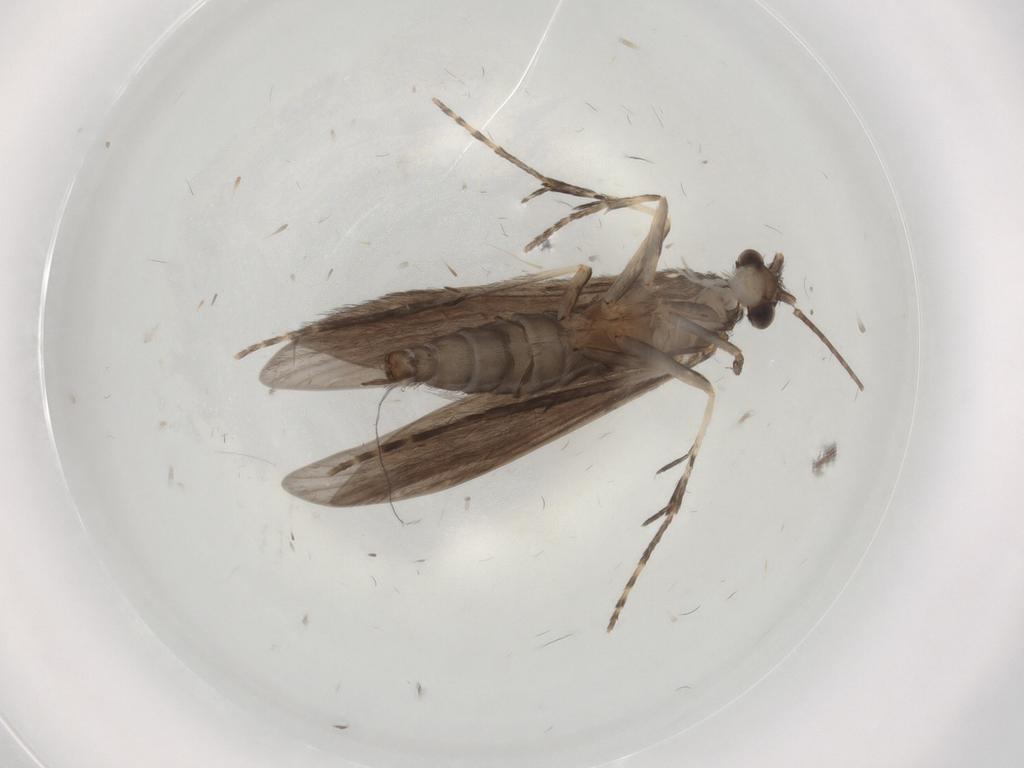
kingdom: Animalia
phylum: Arthropoda
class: Insecta
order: Trichoptera
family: Xiphocentronidae
